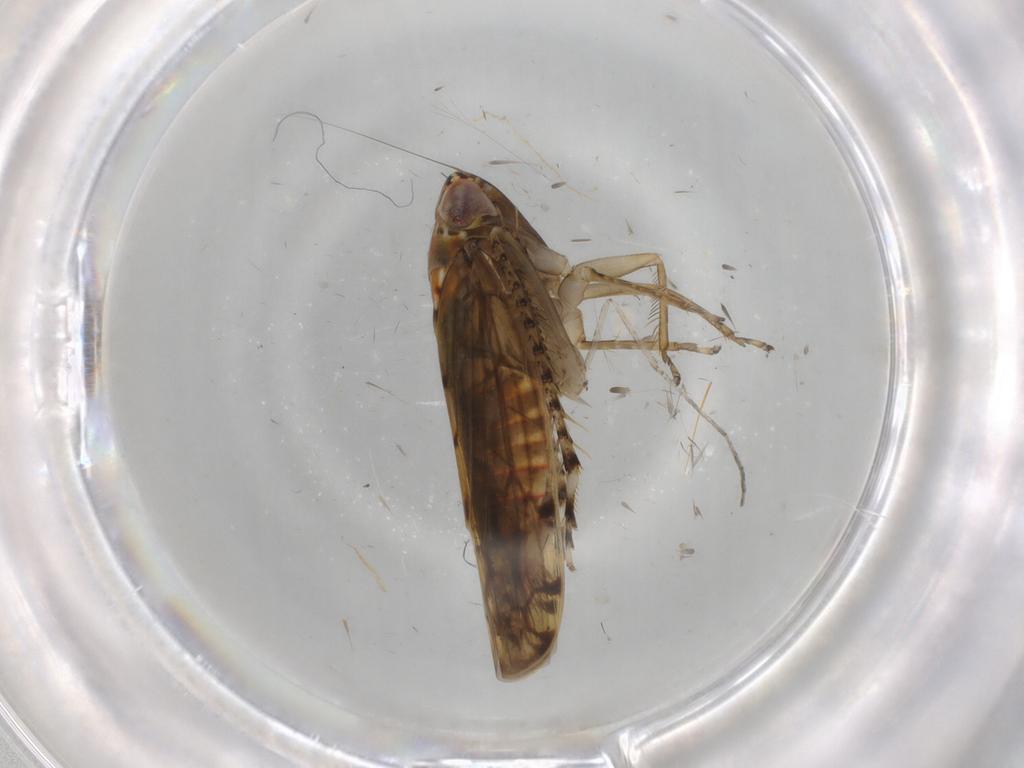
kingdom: Animalia
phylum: Arthropoda
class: Insecta
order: Hemiptera
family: Cicadellidae
